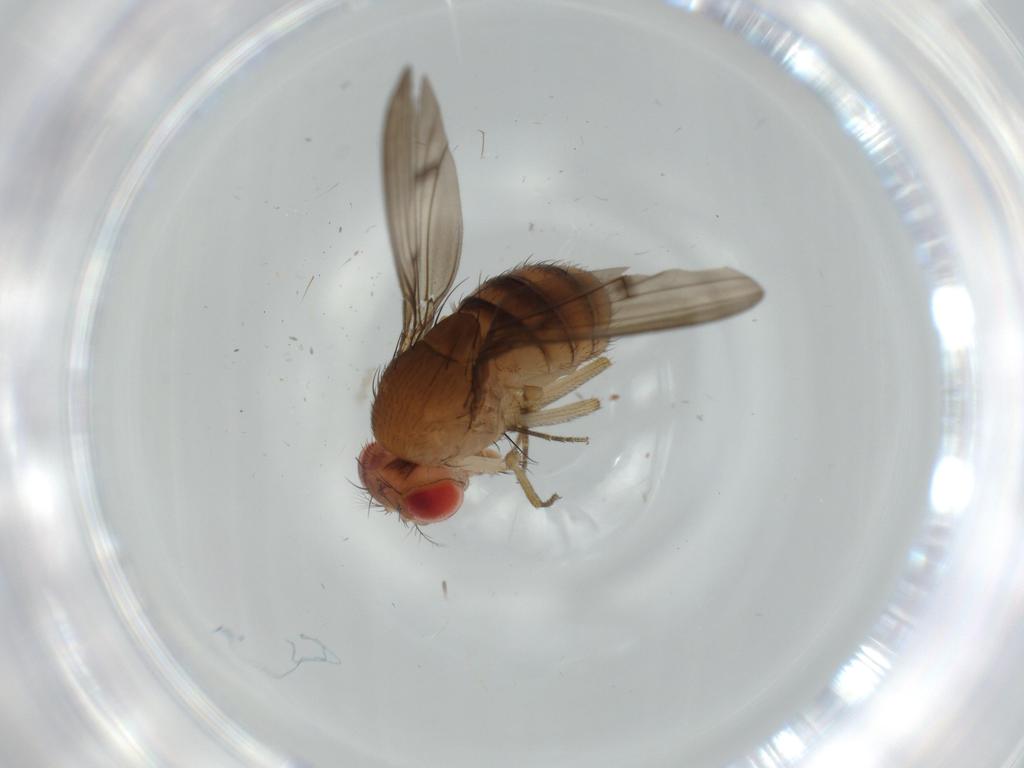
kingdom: Animalia
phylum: Arthropoda
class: Insecta
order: Diptera
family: Drosophilidae
